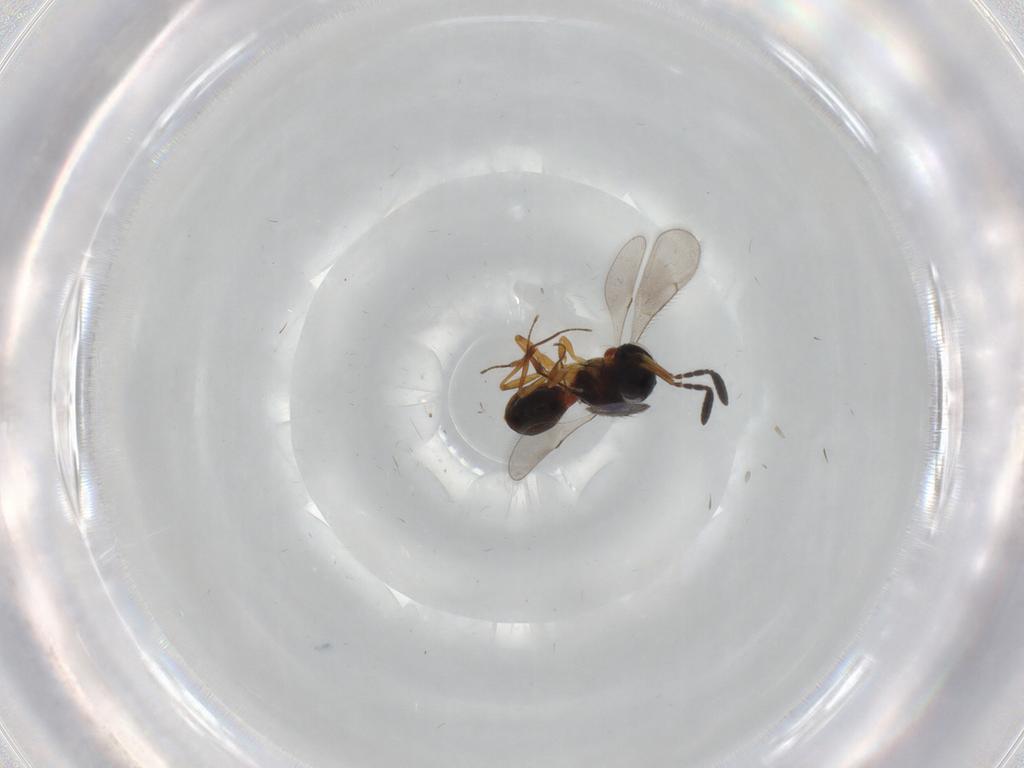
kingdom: Animalia
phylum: Arthropoda
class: Insecta
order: Hymenoptera
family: Scelionidae
